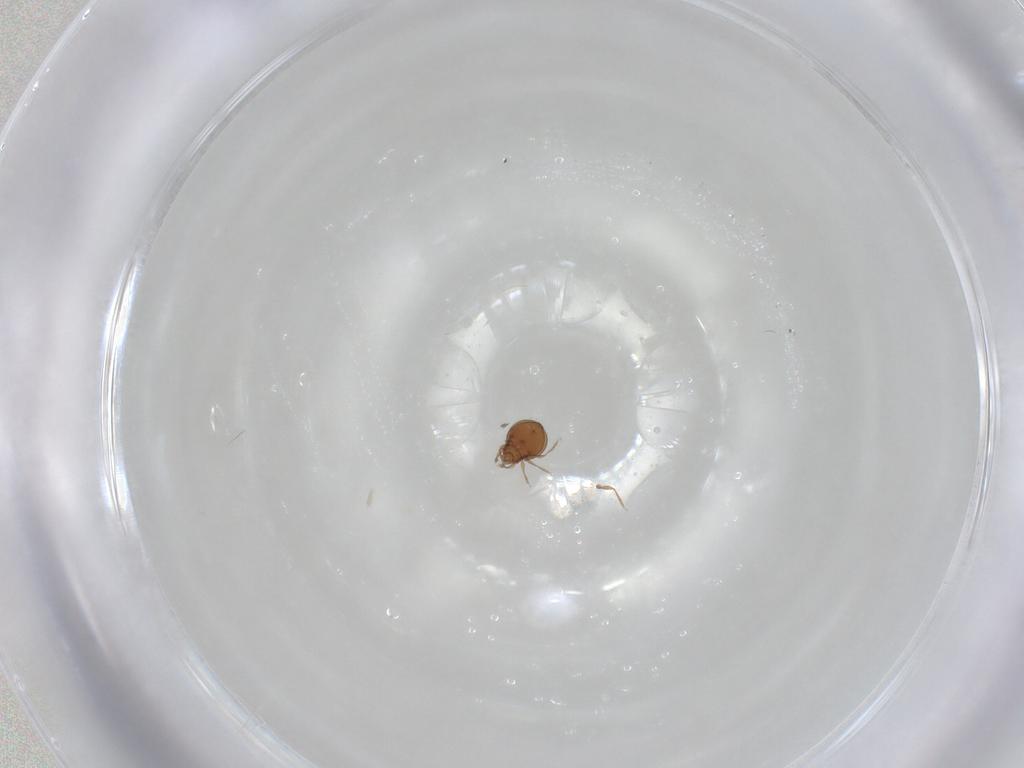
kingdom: Animalia
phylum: Arthropoda
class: Arachnida
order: Sarcoptiformes
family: Oribatulidae
